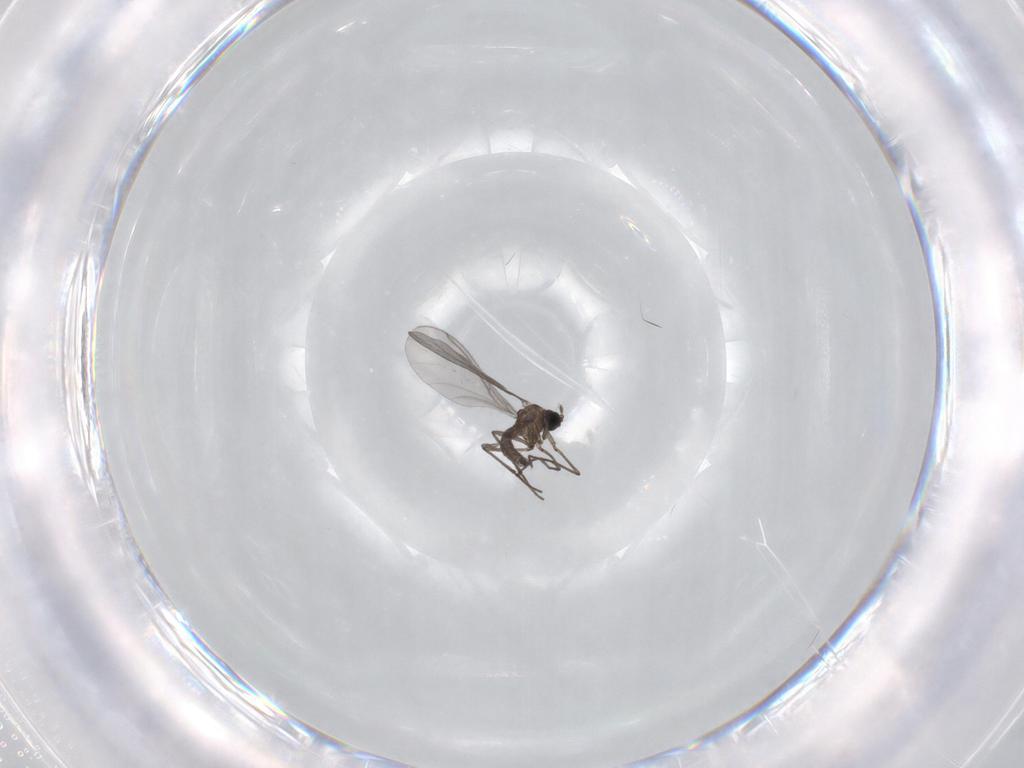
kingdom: Animalia
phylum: Arthropoda
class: Insecta
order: Diptera
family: Sciaridae
